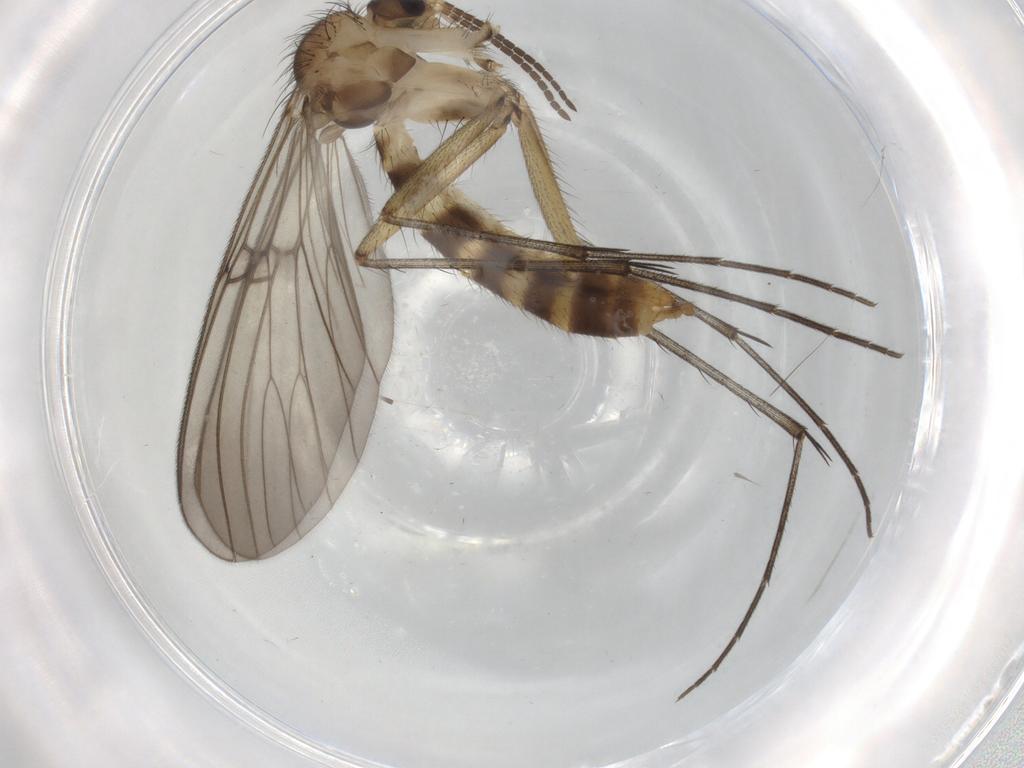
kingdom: Animalia
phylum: Arthropoda
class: Insecta
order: Diptera
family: Mycetophilidae
